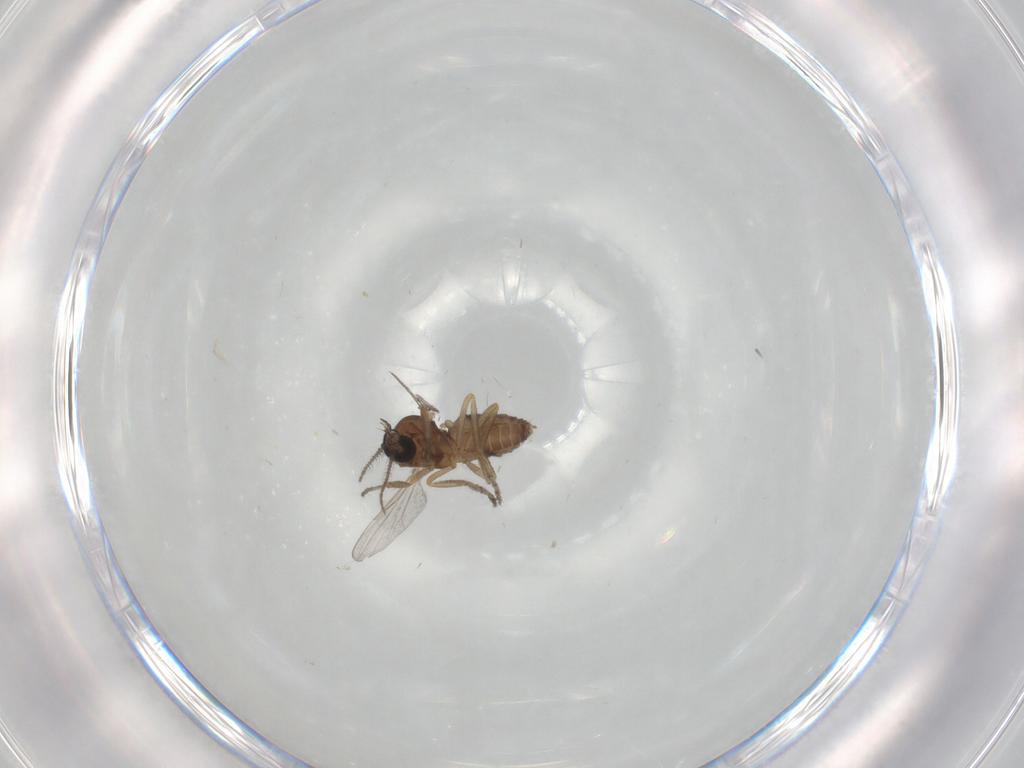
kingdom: Animalia
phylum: Arthropoda
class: Insecta
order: Diptera
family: Ceratopogonidae
